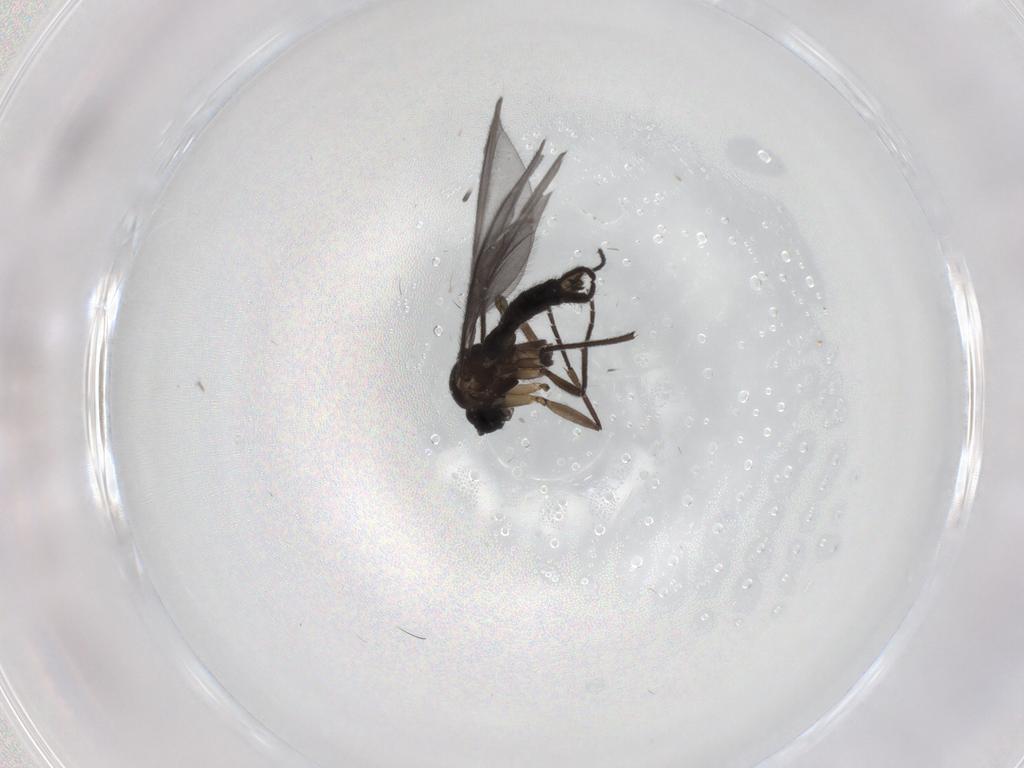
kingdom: Animalia
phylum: Arthropoda
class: Insecta
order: Diptera
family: Sciaridae
